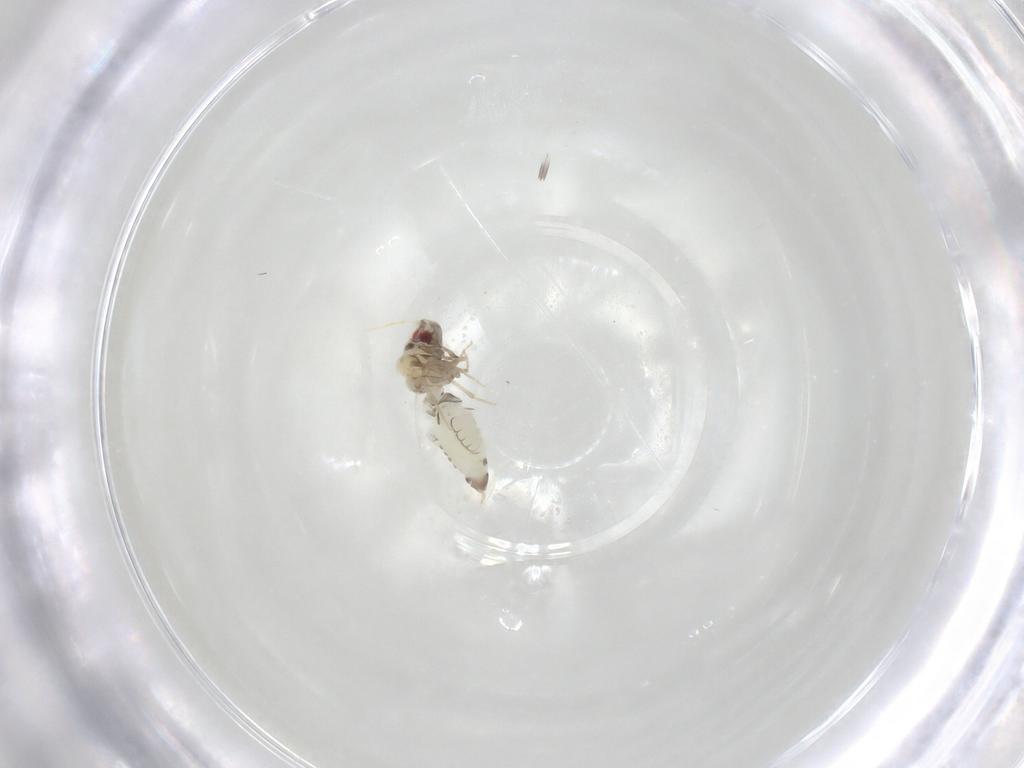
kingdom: Animalia
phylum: Arthropoda
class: Insecta
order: Hemiptera
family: Aleyrodidae
